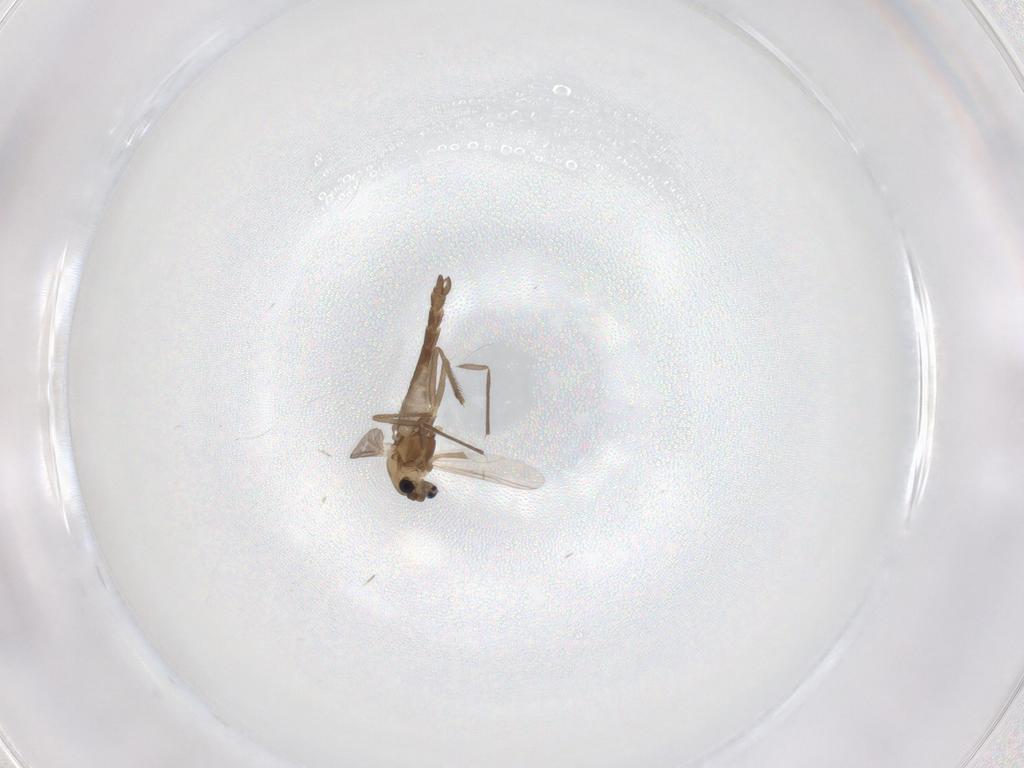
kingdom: Animalia
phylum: Arthropoda
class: Insecta
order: Diptera
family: Chironomidae
